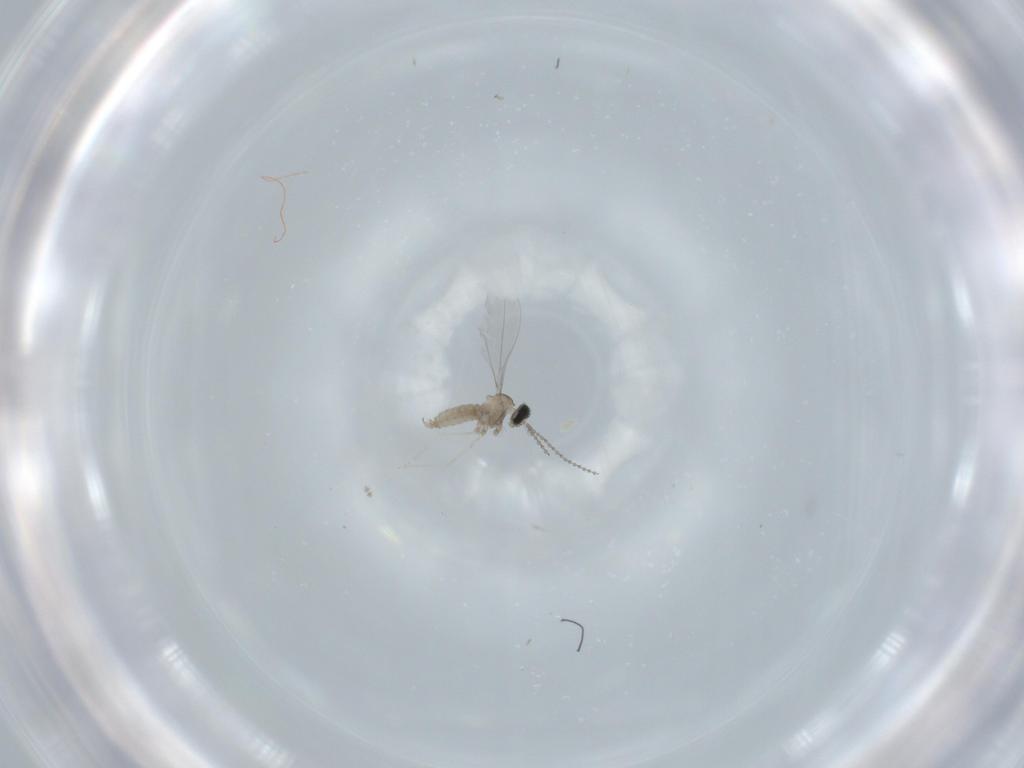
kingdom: Animalia
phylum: Arthropoda
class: Insecta
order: Diptera
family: Cecidomyiidae
